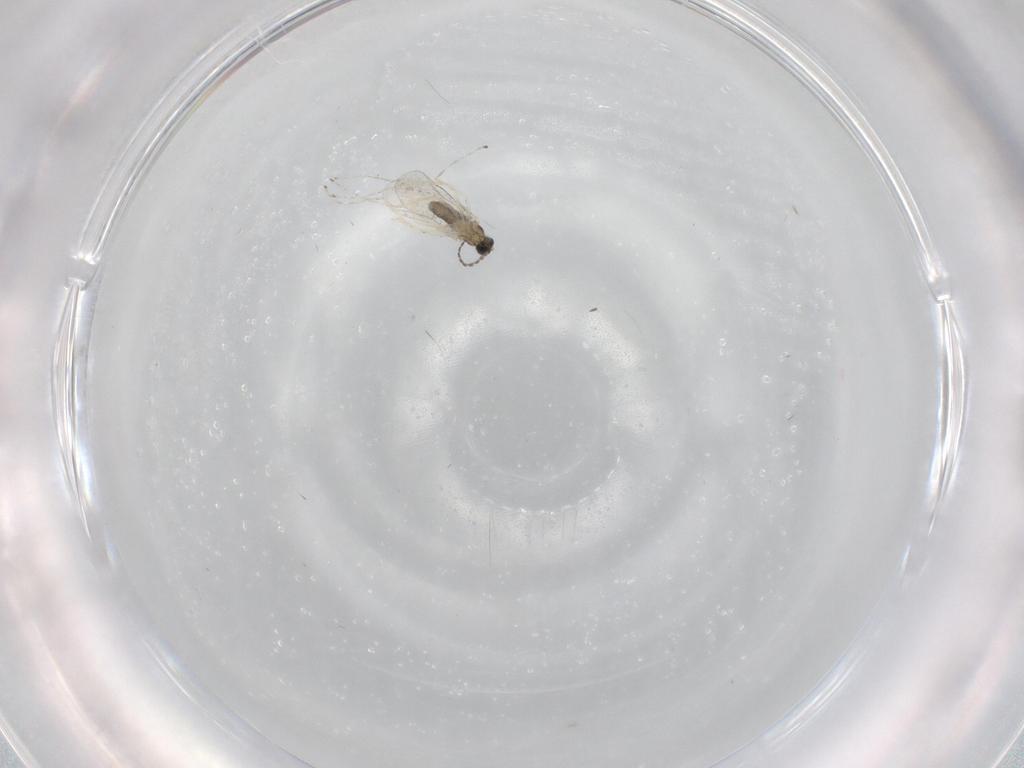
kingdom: Animalia
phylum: Arthropoda
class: Insecta
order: Diptera
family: Cecidomyiidae
